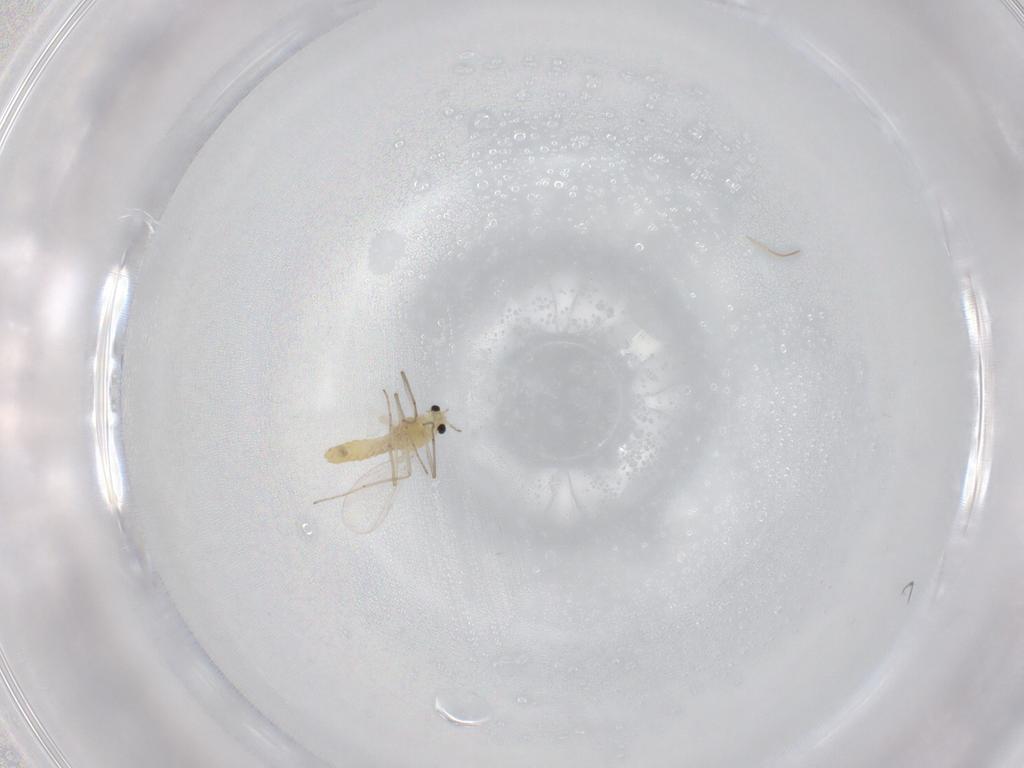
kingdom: Animalia
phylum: Arthropoda
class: Insecta
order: Diptera
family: Chironomidae
